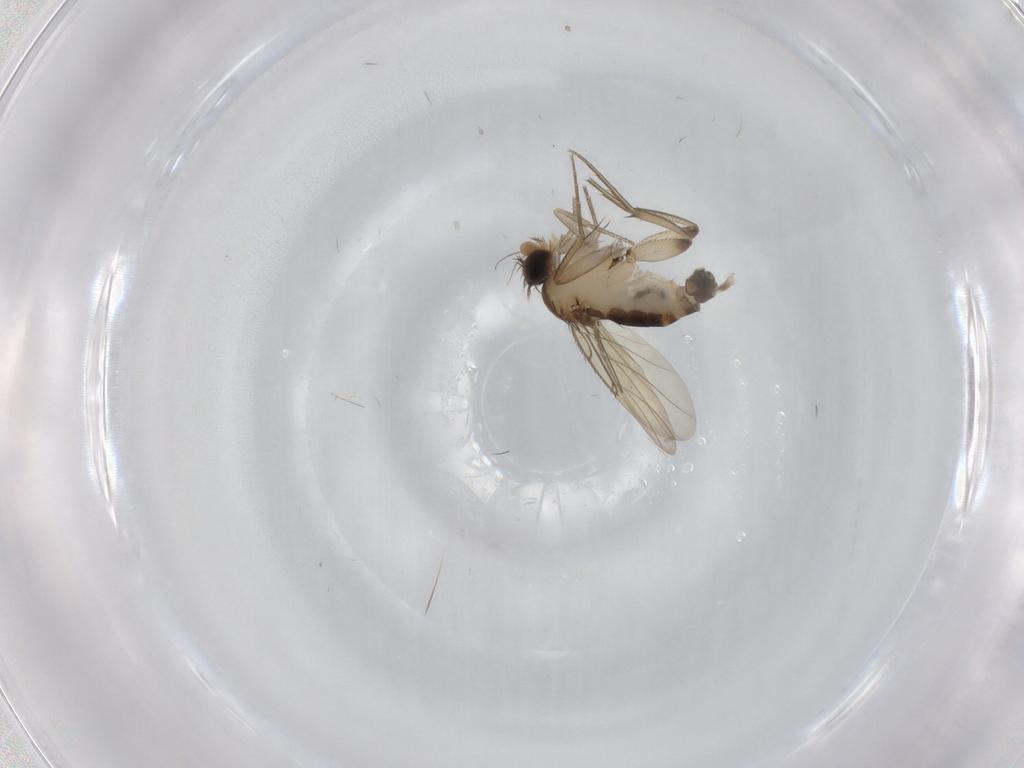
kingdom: Animalia
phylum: Arthropoda
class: Insecta
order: Diptera
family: Phoridae
